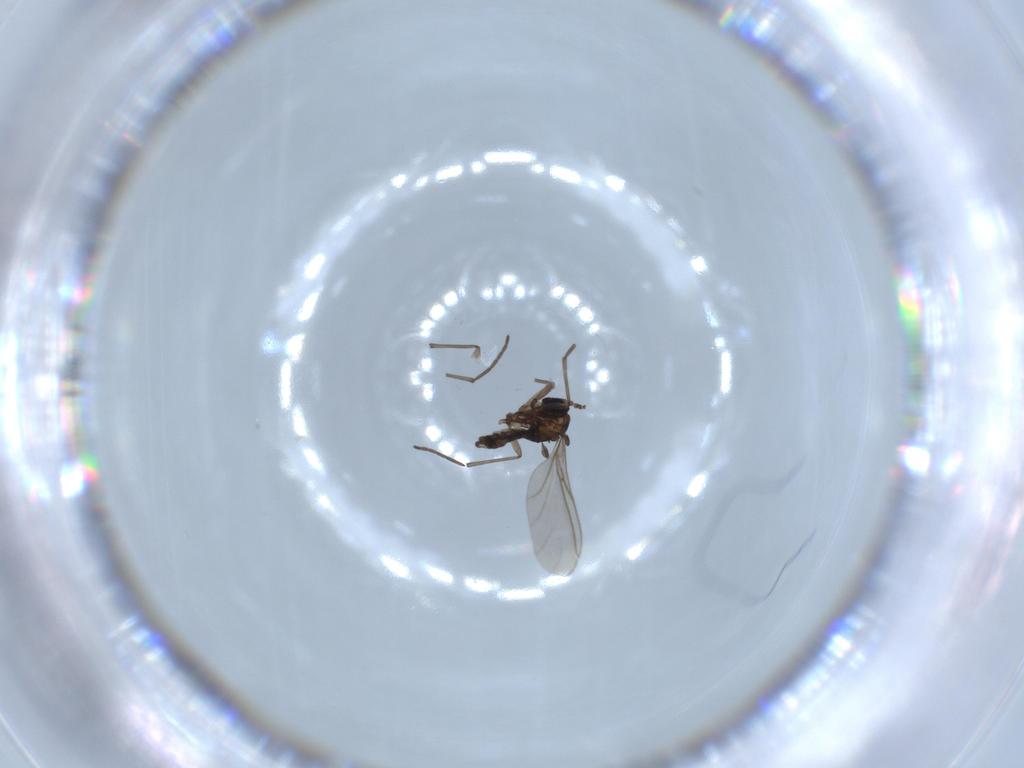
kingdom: Animalia
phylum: Arthropoda
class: Insecta
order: Diptera
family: Sciaridae
